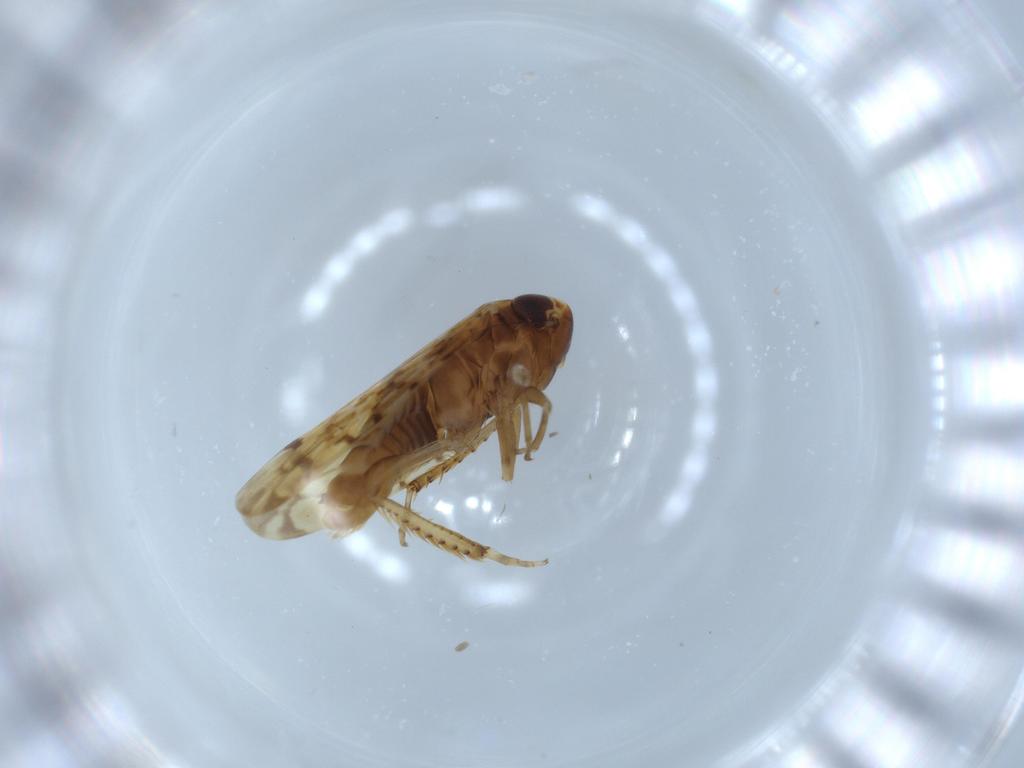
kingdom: Animalia
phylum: Arthropoda
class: Insecta
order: Hemiptera
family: Cicadellidae
